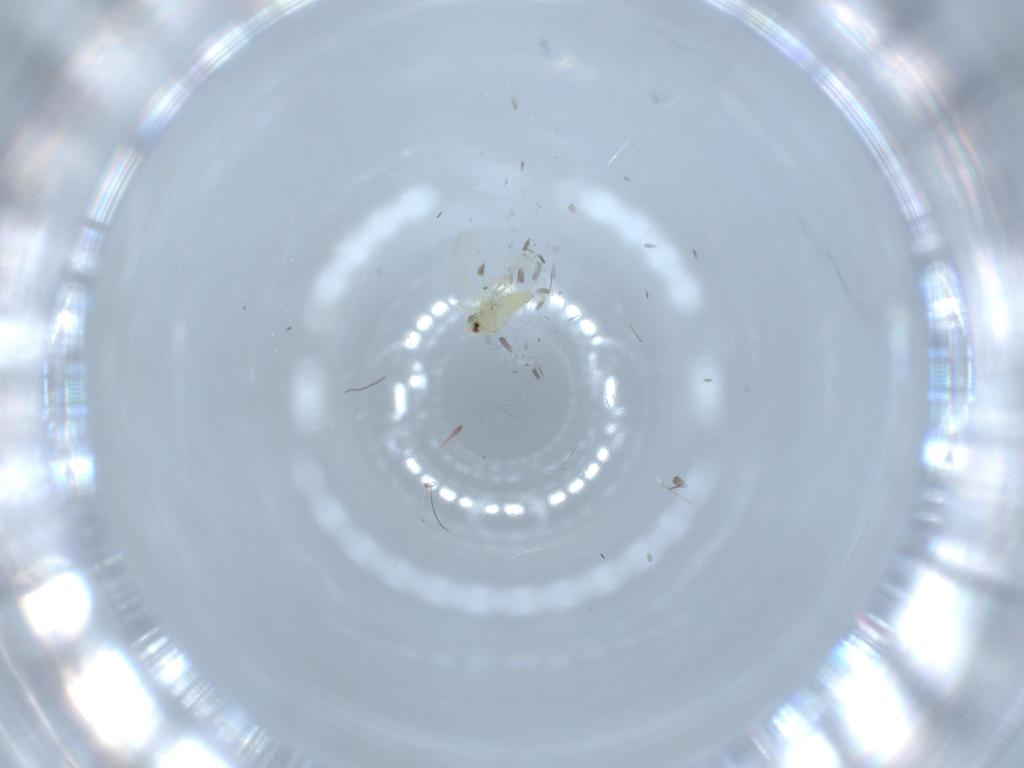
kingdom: Animalia
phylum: Arthropoda
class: Insecta
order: Hemiptera
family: Aleyrodidae
